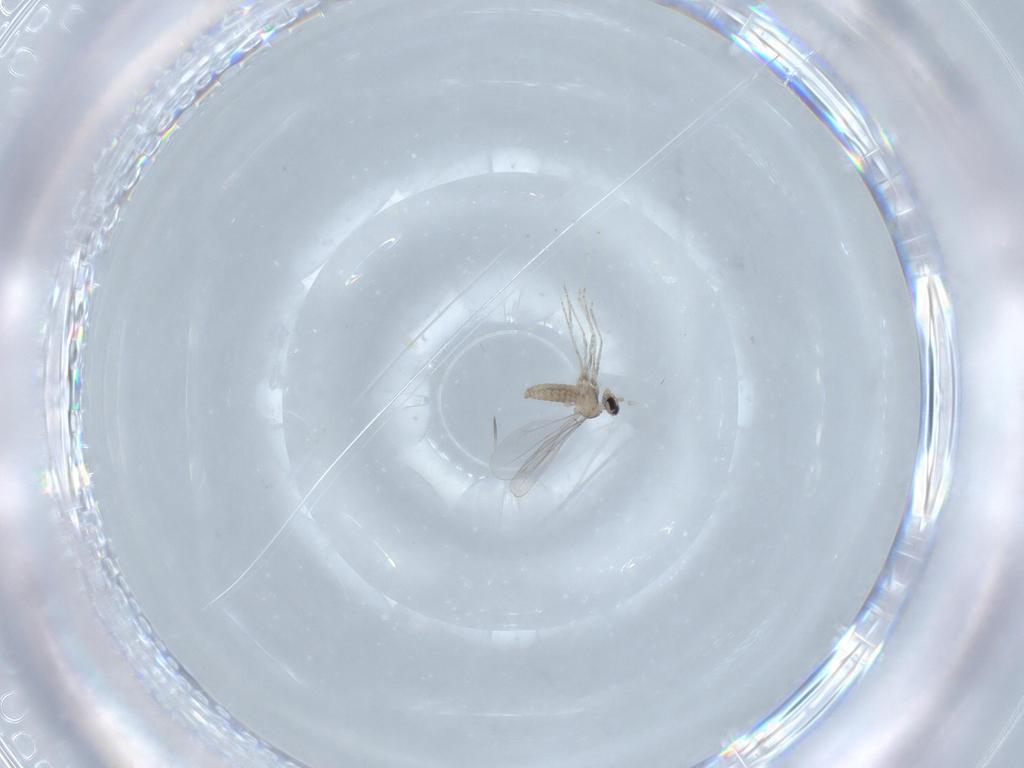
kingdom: Animalia
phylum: Arthropoda
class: Insecta
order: Diptera
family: Cecidomyiidae
